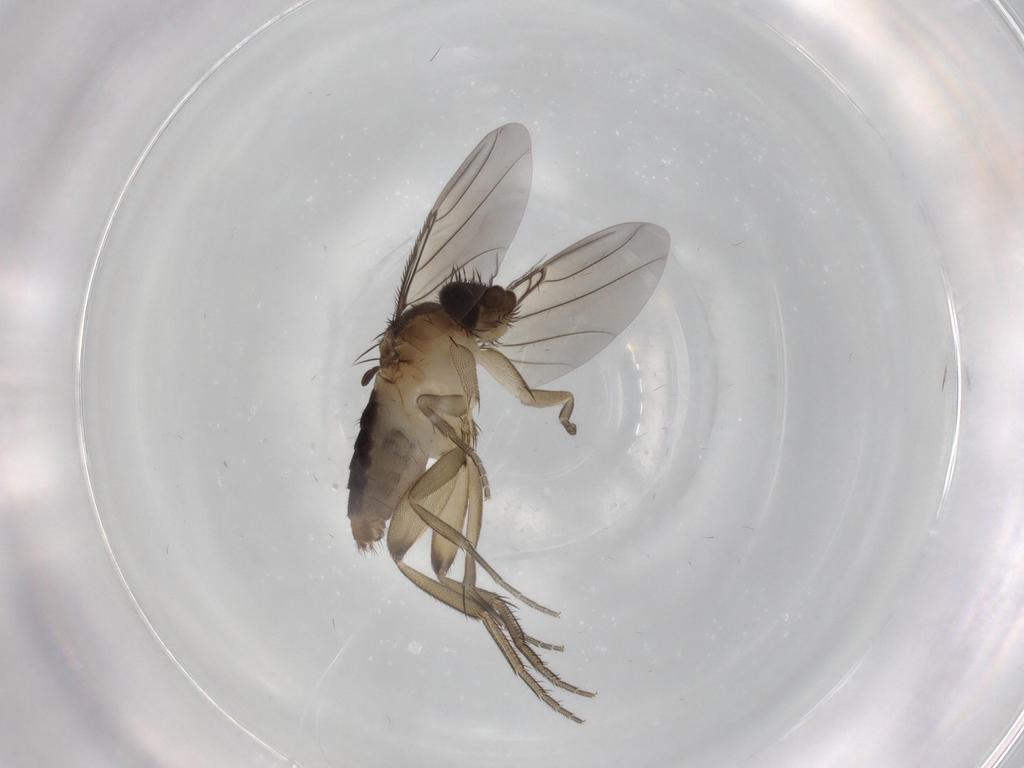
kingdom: Animalia
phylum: Arthropoda
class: Insecta
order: Diptera
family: Phoridae
